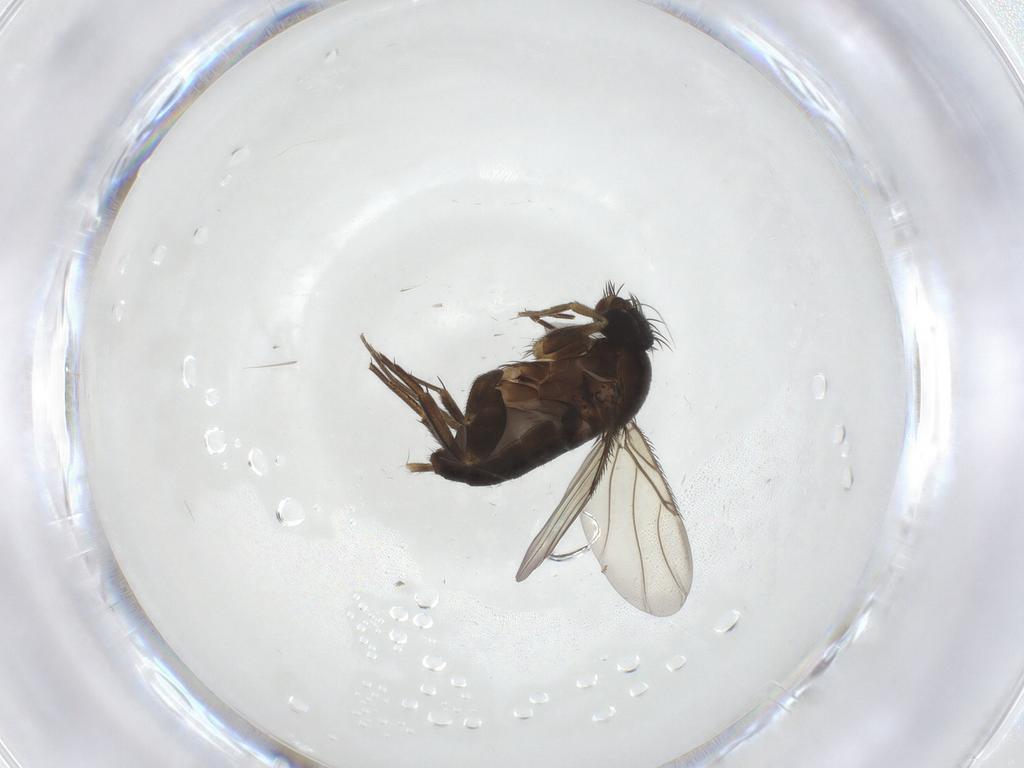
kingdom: Animalia
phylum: Arthropoda
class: Insecta
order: Diptera
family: Phoridae
